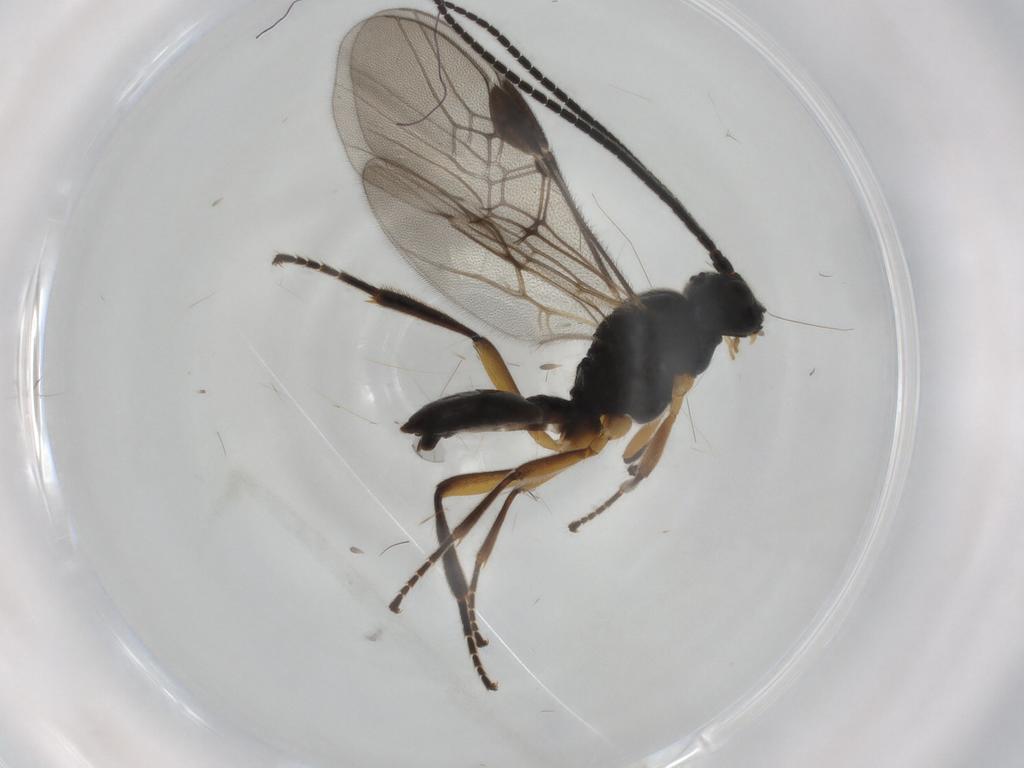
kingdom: Animalia
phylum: Arthropoda
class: Insecta
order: Hymenoptera
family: Braconidae
